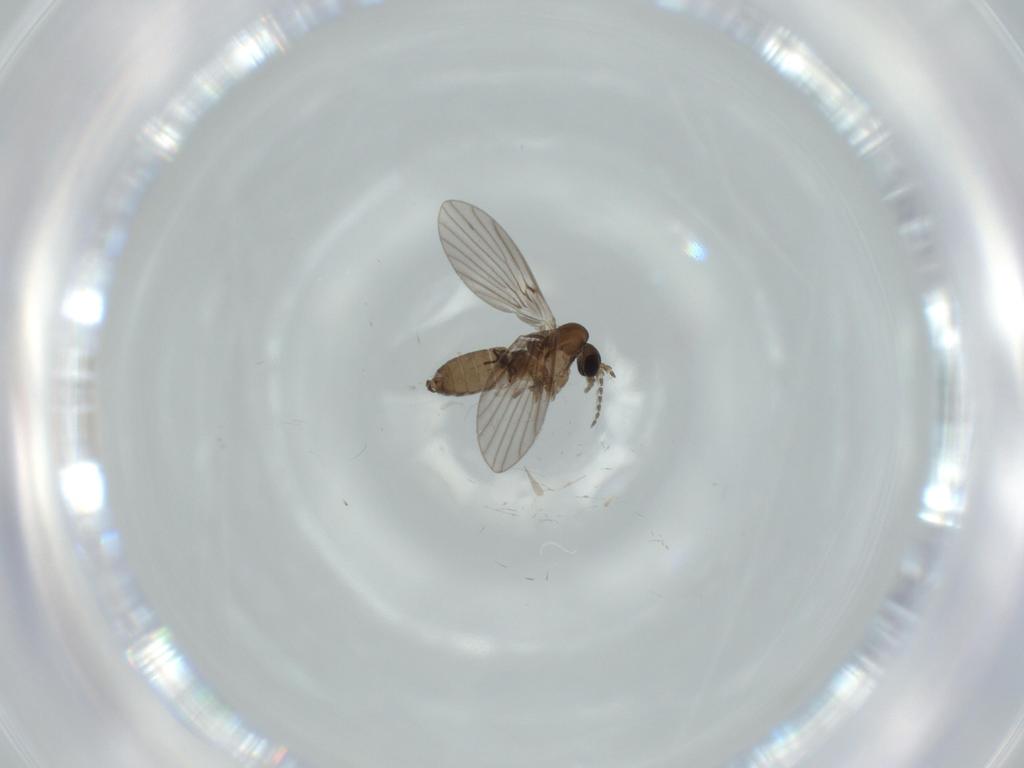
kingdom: Animalia
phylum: Arthropoda
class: Insecta
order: Diptera
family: Psychodidae
